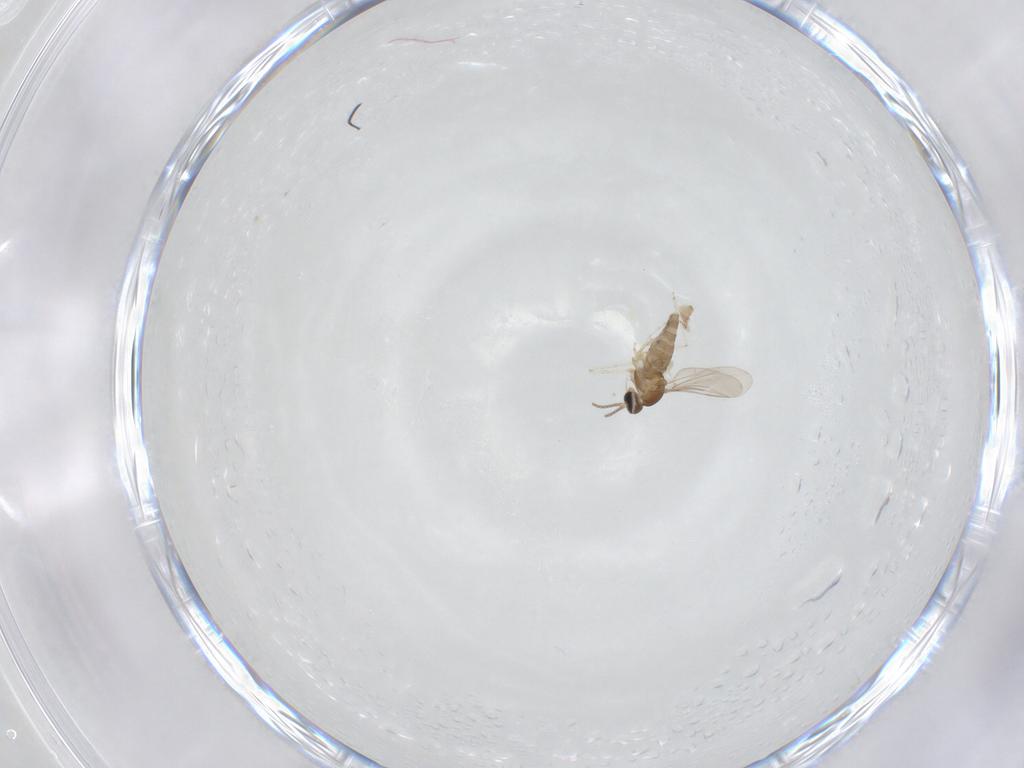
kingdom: Animalia
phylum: Arthropoda
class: Insecta
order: Diptera
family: Cecidomyiidae
